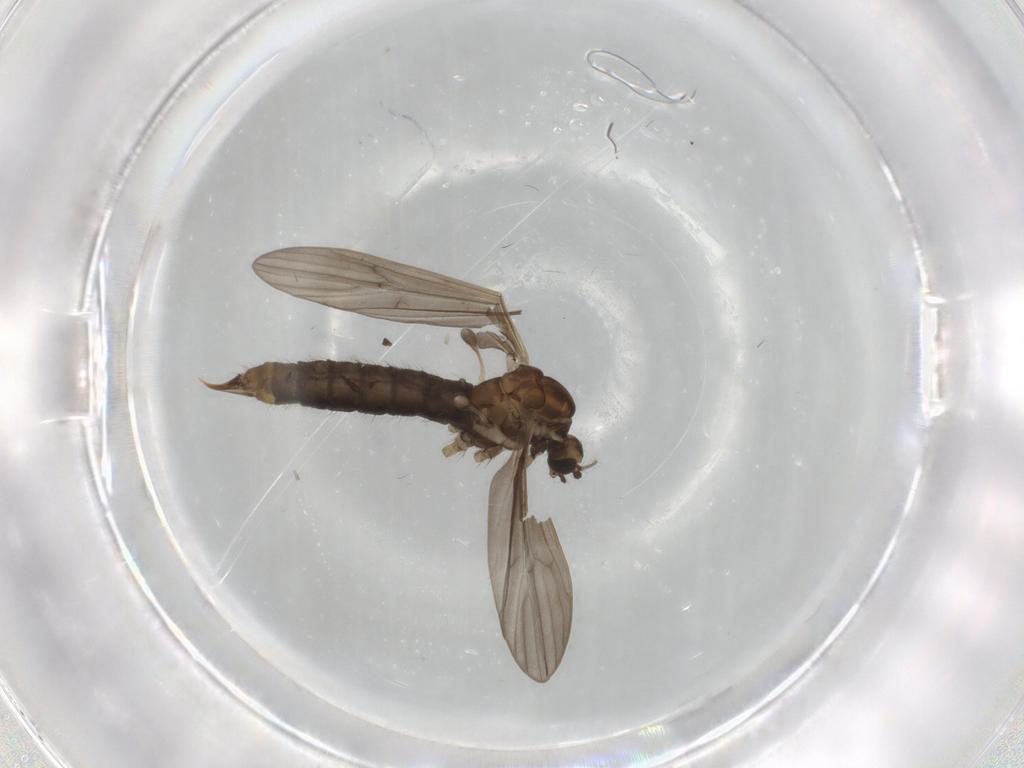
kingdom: Animalia
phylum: Arthropoda
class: Insecta
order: Diptera
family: Limoniidae
